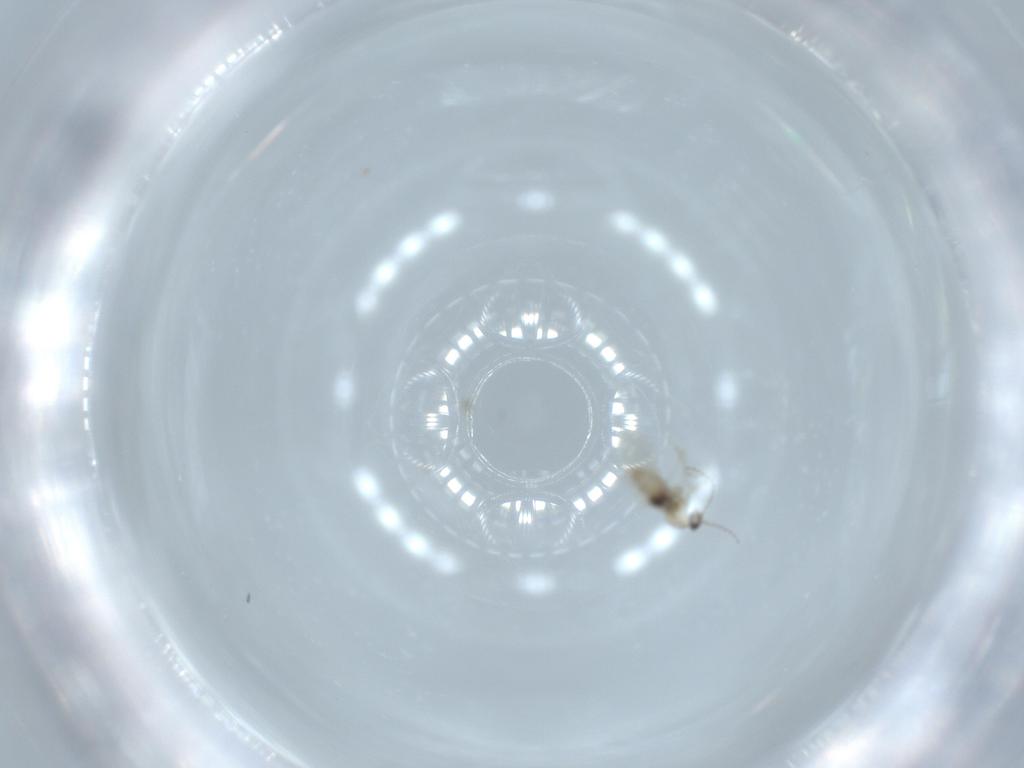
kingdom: Animalia
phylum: Arthropoda
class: Insecta
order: Diptera
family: Cecidomyiidae
